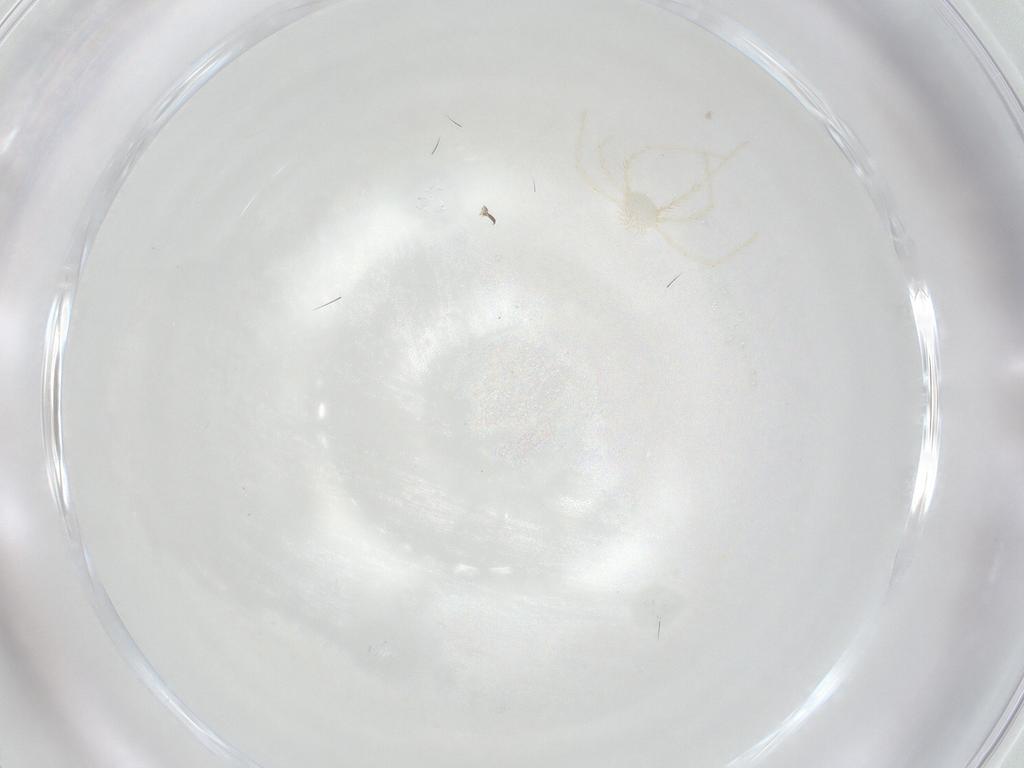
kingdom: Animalia
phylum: Arthropoda
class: Insecta
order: Hemiptera
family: Aphididae
